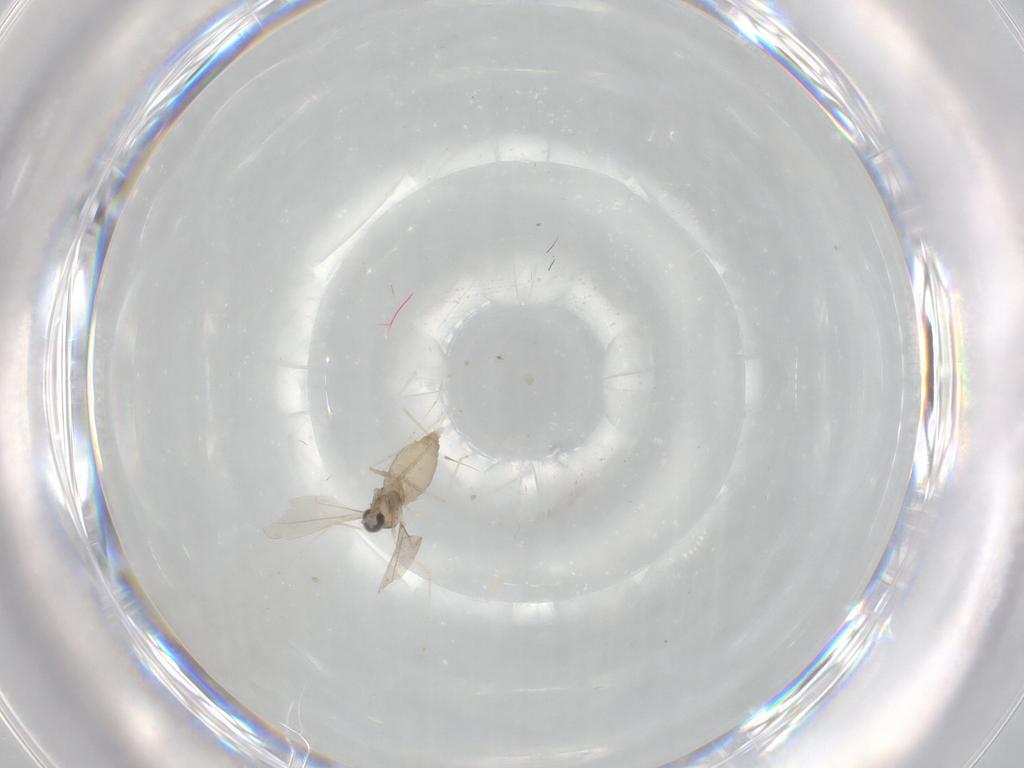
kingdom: Animalia
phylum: Arthropoda
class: Insecta
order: Diptera
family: Cecidomyiidae
